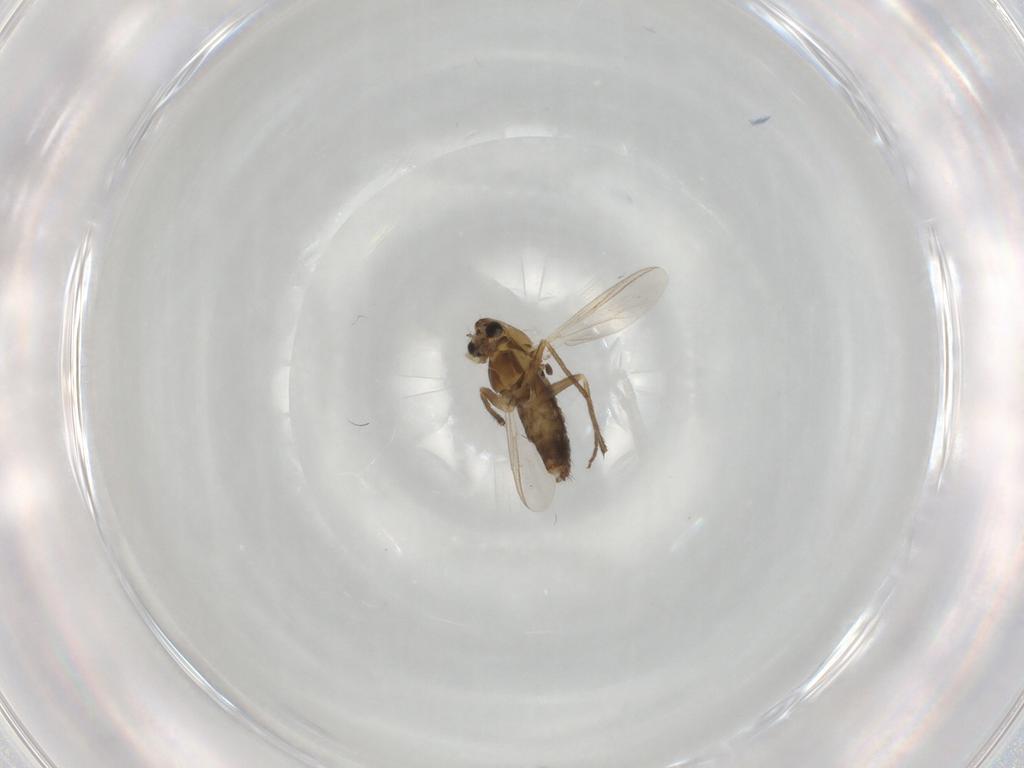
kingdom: Animalia
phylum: Arthropoda
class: Insecta
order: Diptera
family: Chironomidae
